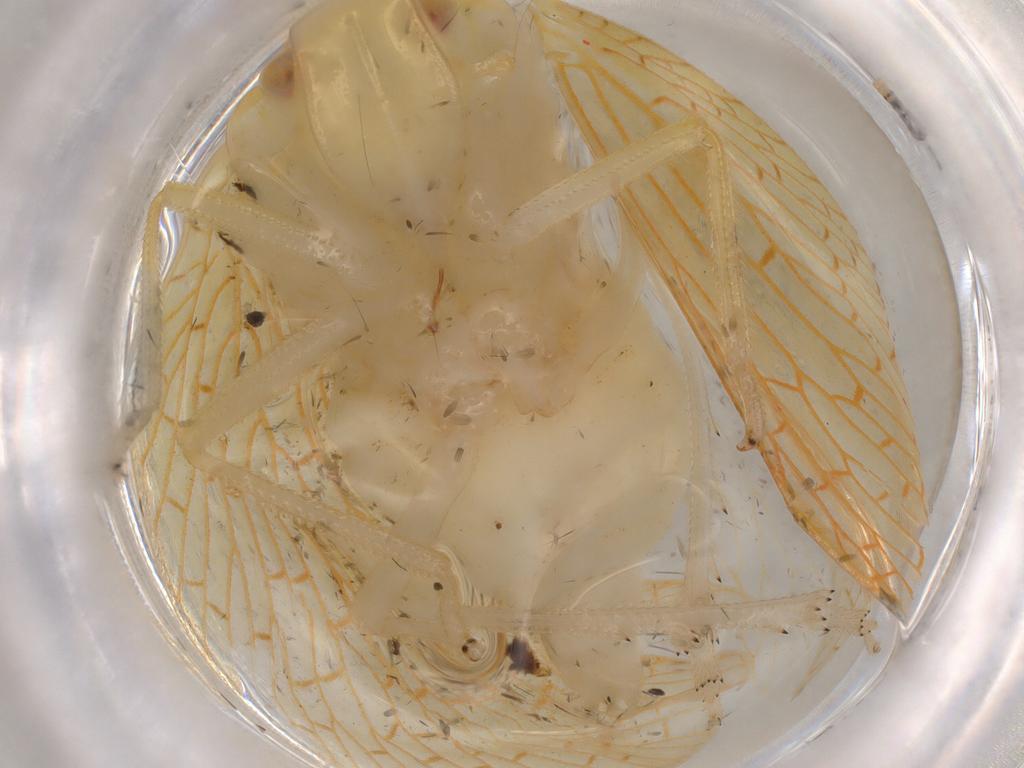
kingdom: Animalia
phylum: Arthropoda
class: Insecta
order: Hemiptera
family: Tropiduchidae
